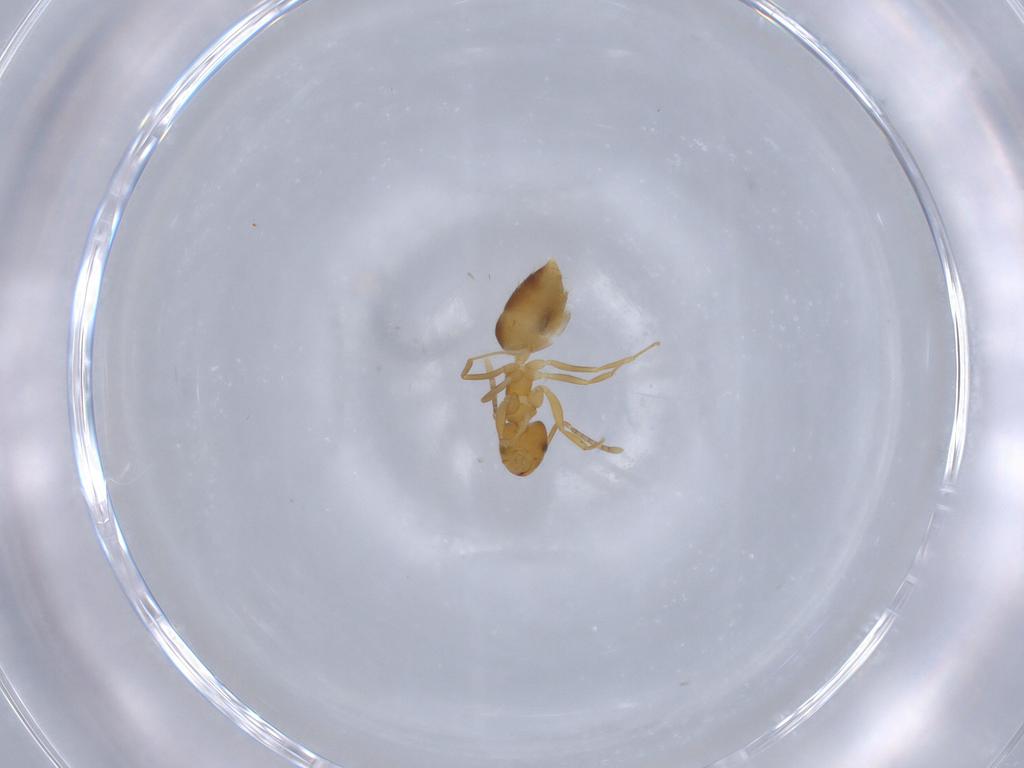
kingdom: Animalia
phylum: Arthropoda
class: Insecta
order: Hymenoptera
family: Formicidae
